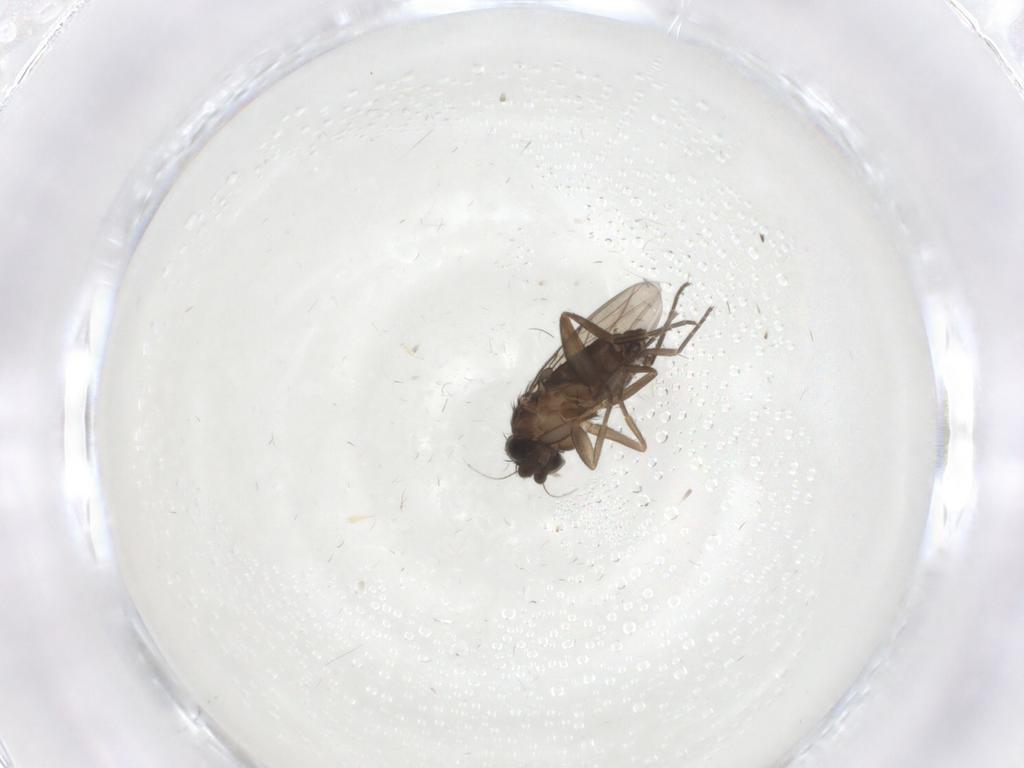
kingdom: Animalia
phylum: Arthropoda
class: Insecta
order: Diptera
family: Phoridae
